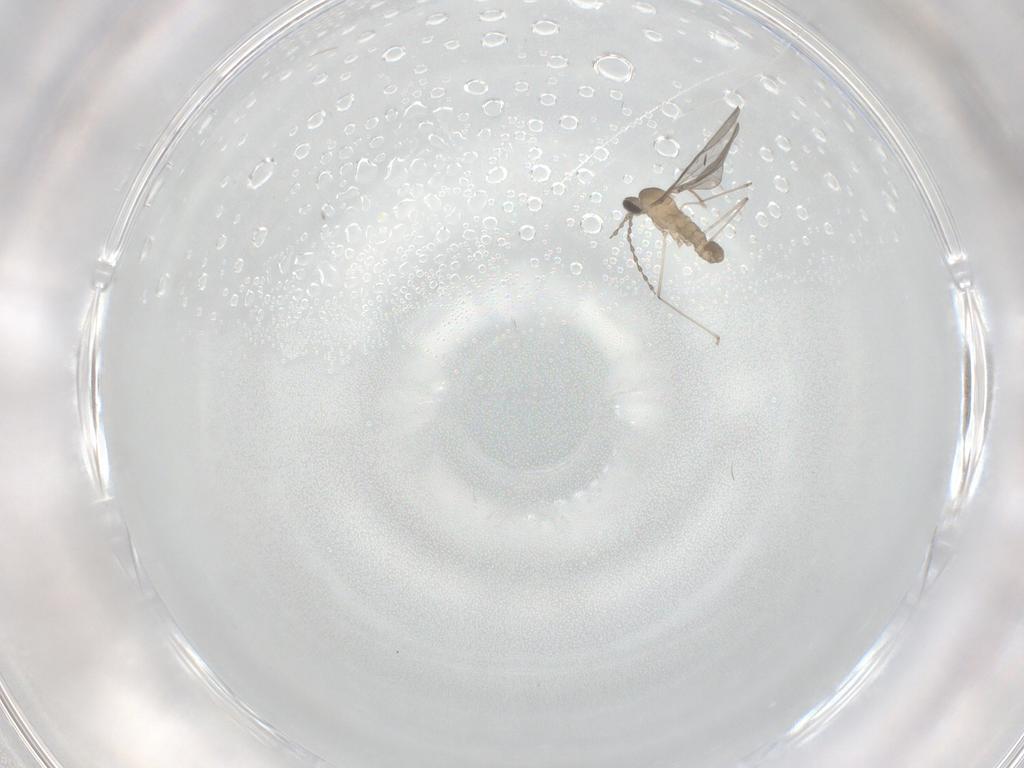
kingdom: Animalia
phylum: Arthropoda
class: Insecta
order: Diptera
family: Cecidomyiidae
